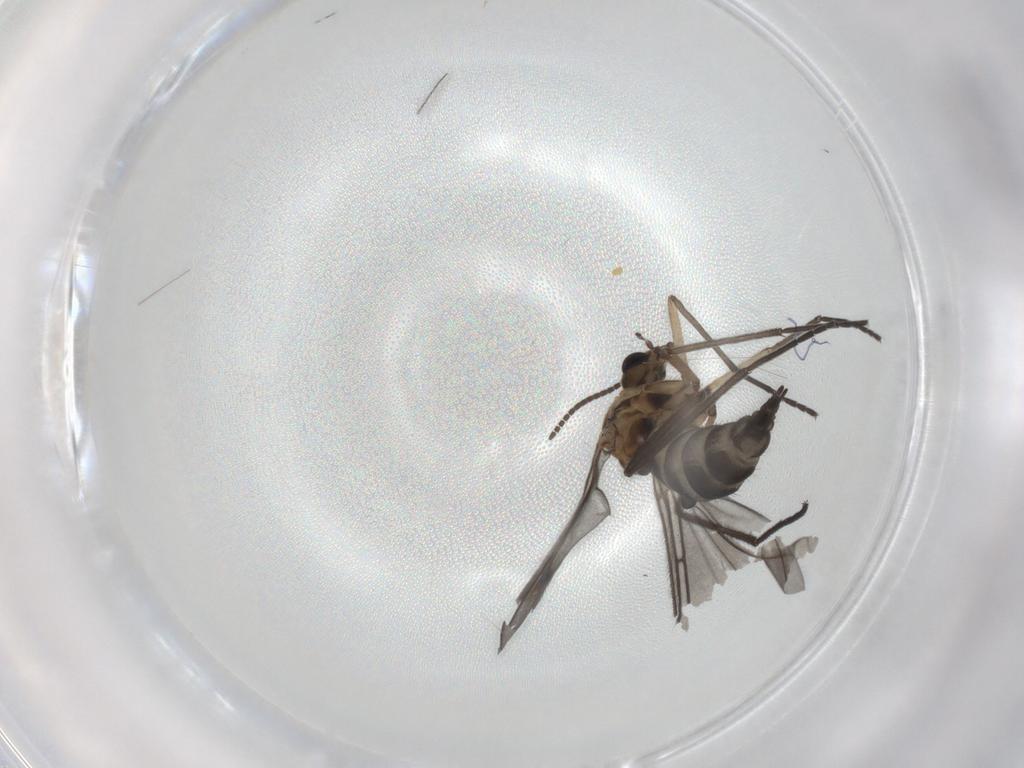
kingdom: Animalia
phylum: Arthropoda
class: Insecta
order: Diptera
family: Sciaridae
